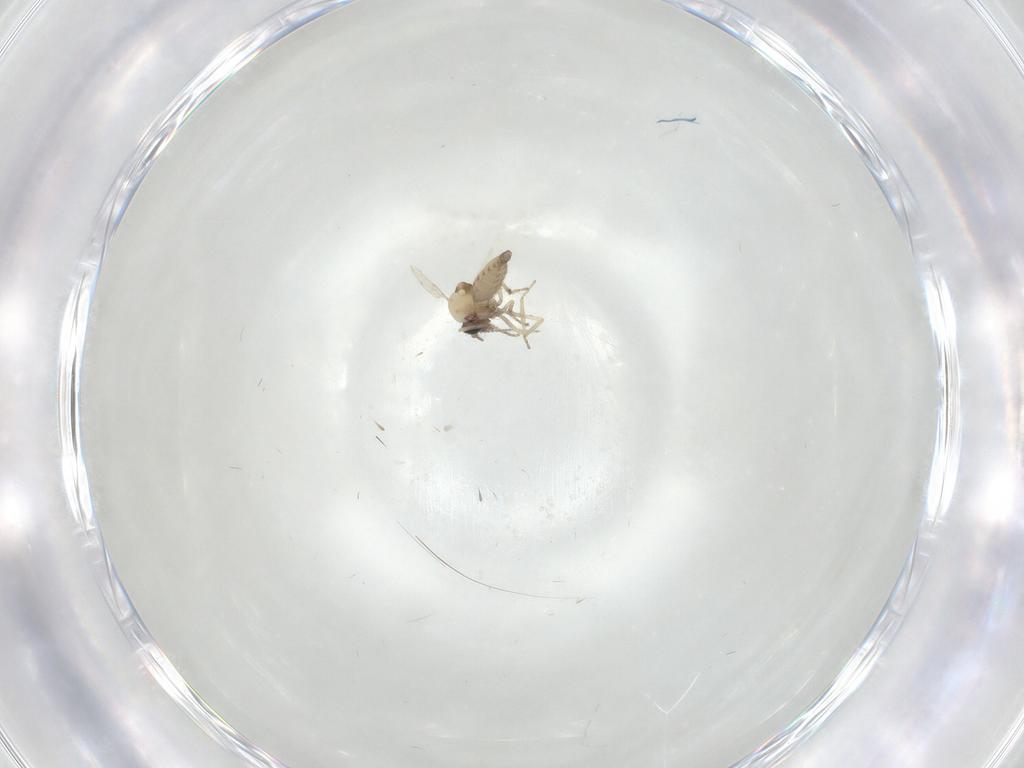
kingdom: Animalia
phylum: Arthropoda
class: Insecta
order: Diptera
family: Ceratopogonidae
